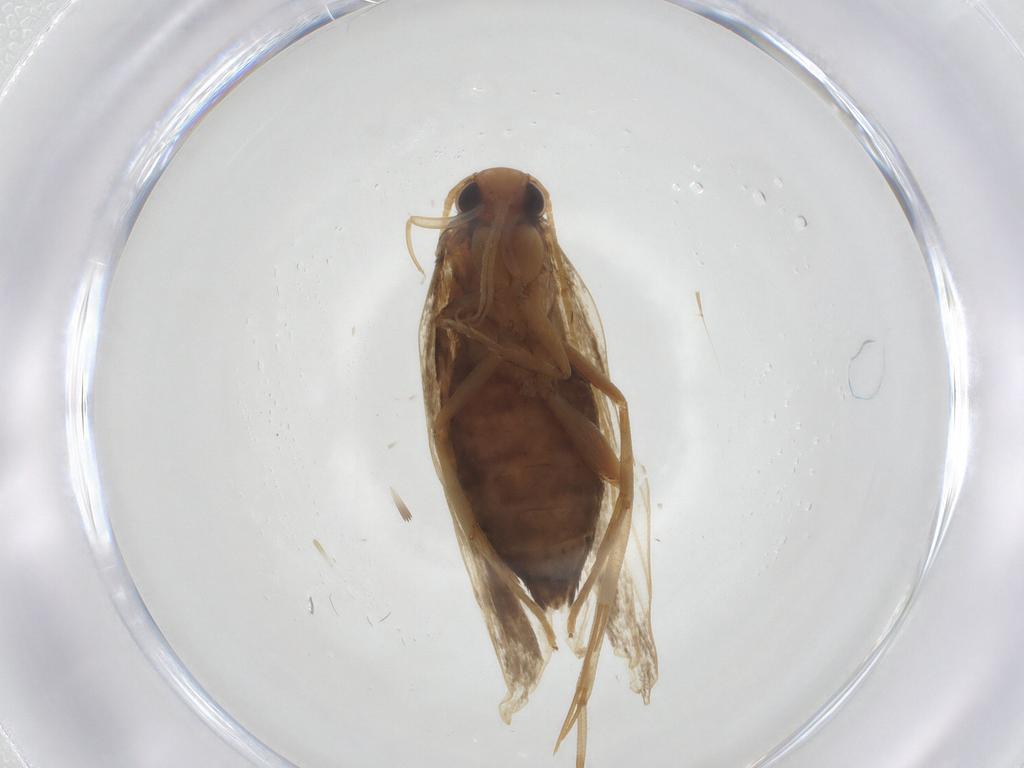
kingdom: Animalia
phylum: Arthropoda
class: Insecta
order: Lepidoptera
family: Lecithoceridae
